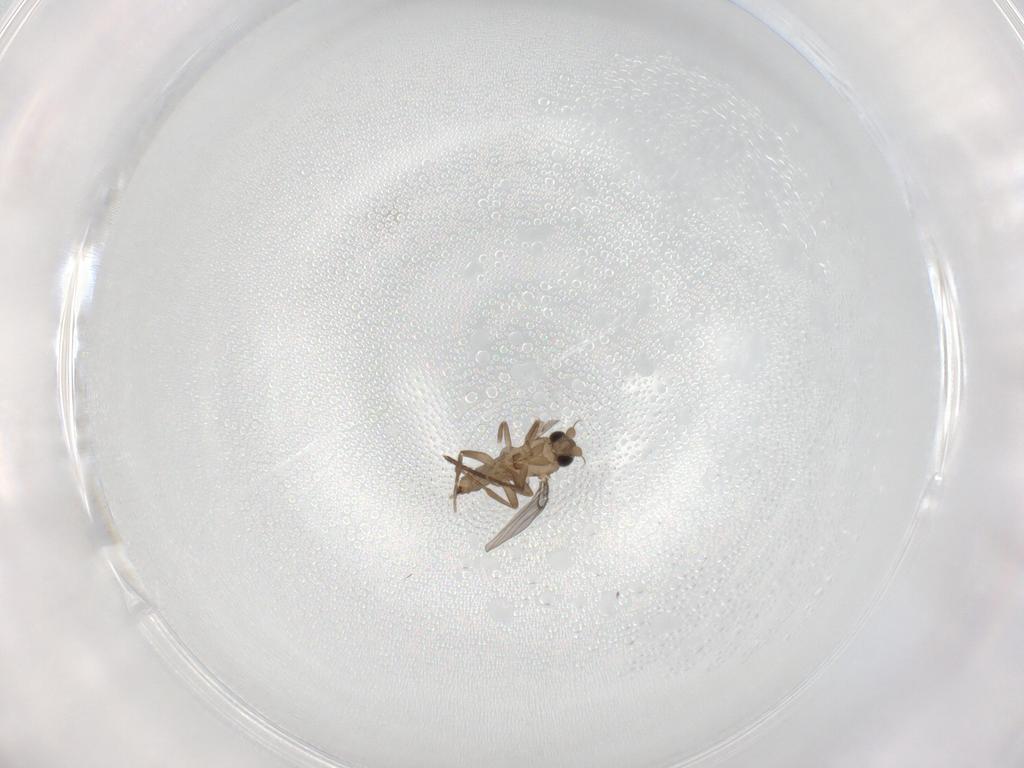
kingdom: Animalia
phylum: Arthropoda
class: Insecta
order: Diptera
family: Mycetophilidae
